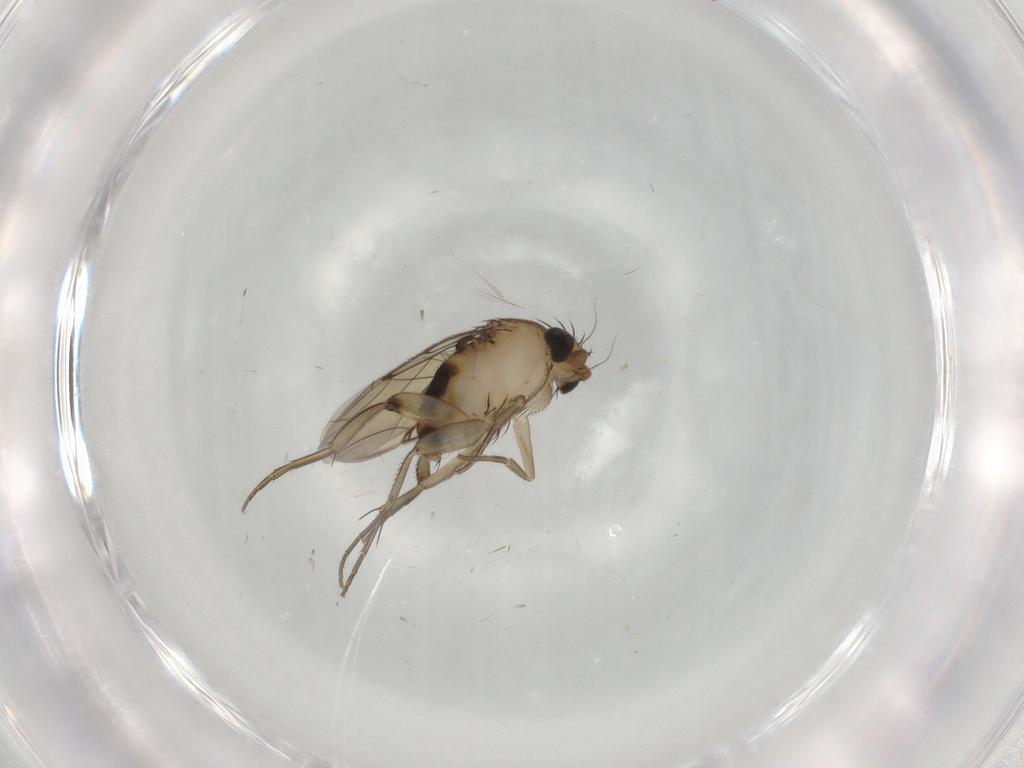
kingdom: Animalia
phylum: Arthropoda
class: Insecta
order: Diptera
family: Phoridae
